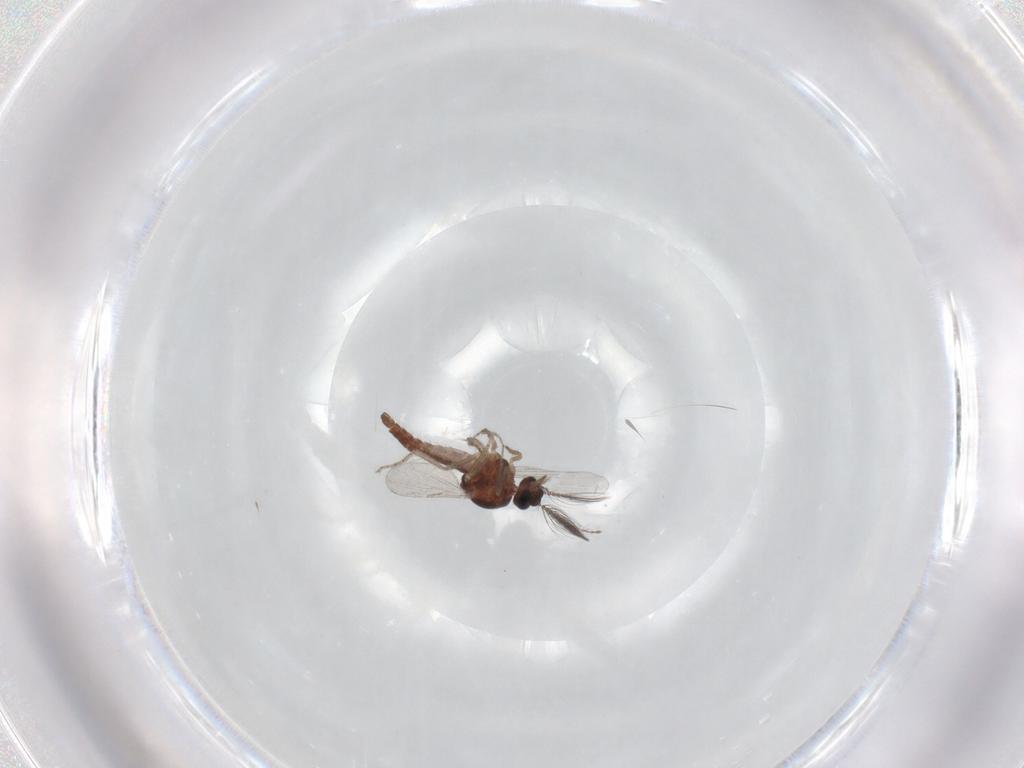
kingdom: Animalia
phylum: Arthropoda
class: Insecta
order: Diptera
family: Ceratopogonidae
